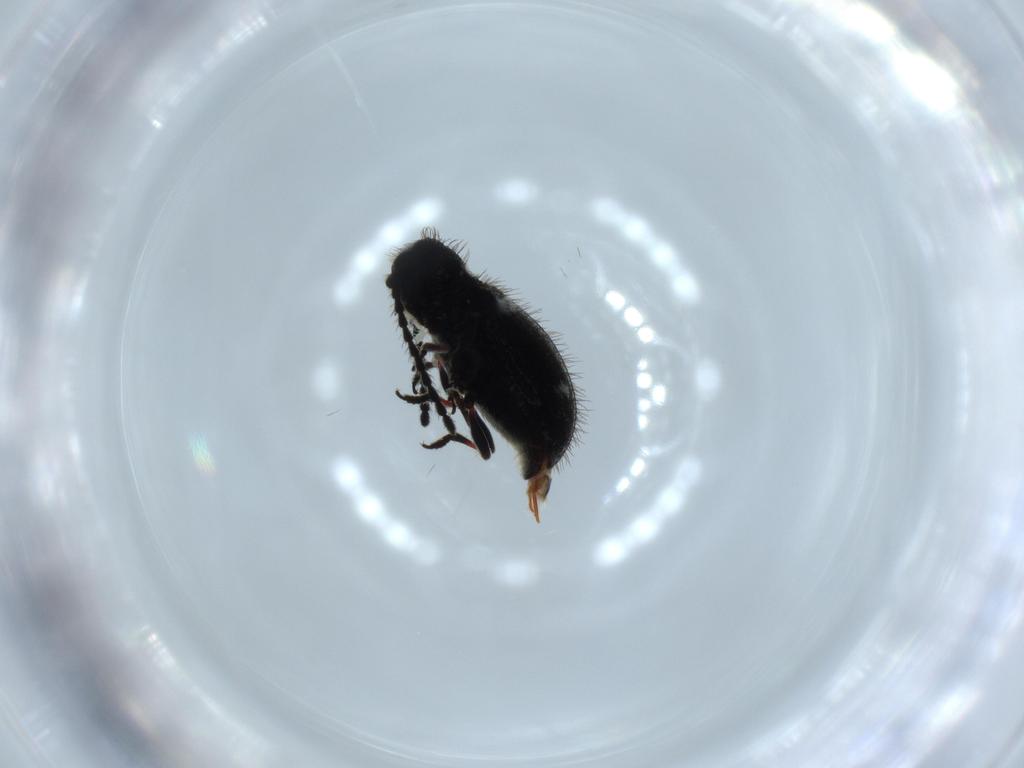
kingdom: Animalia
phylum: Arthropoda
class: Insecta
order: Coleoptera
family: Ptinidae
